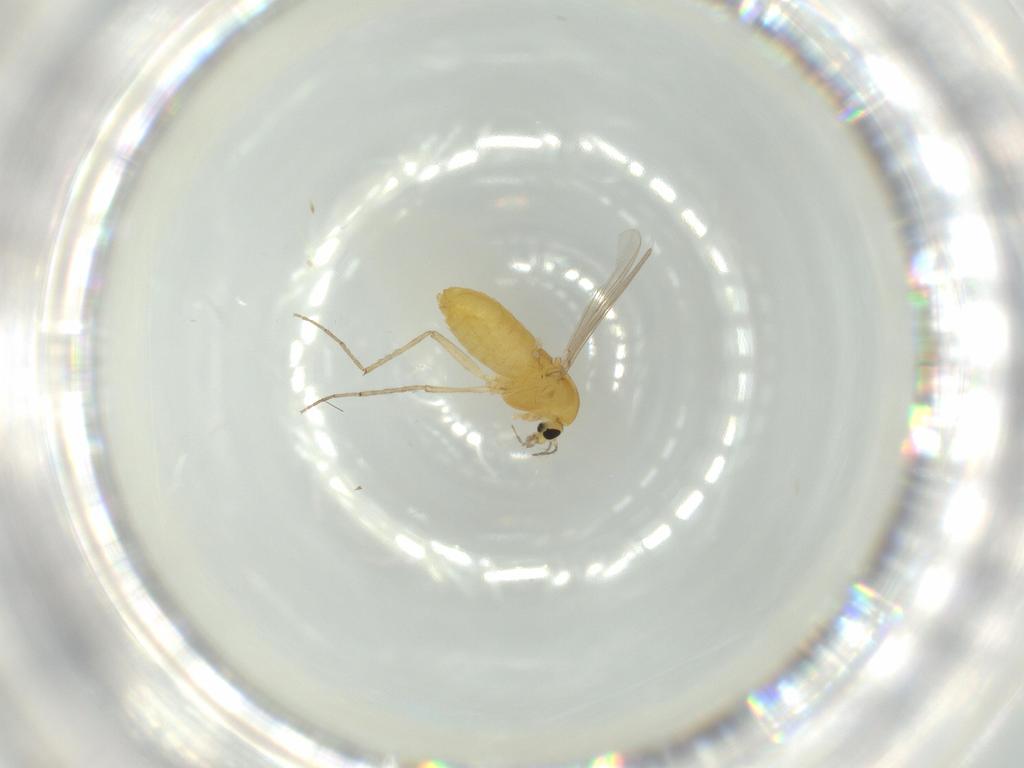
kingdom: Animalia
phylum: Arthropoda
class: Insecta
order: Diptera
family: Chironomidae
